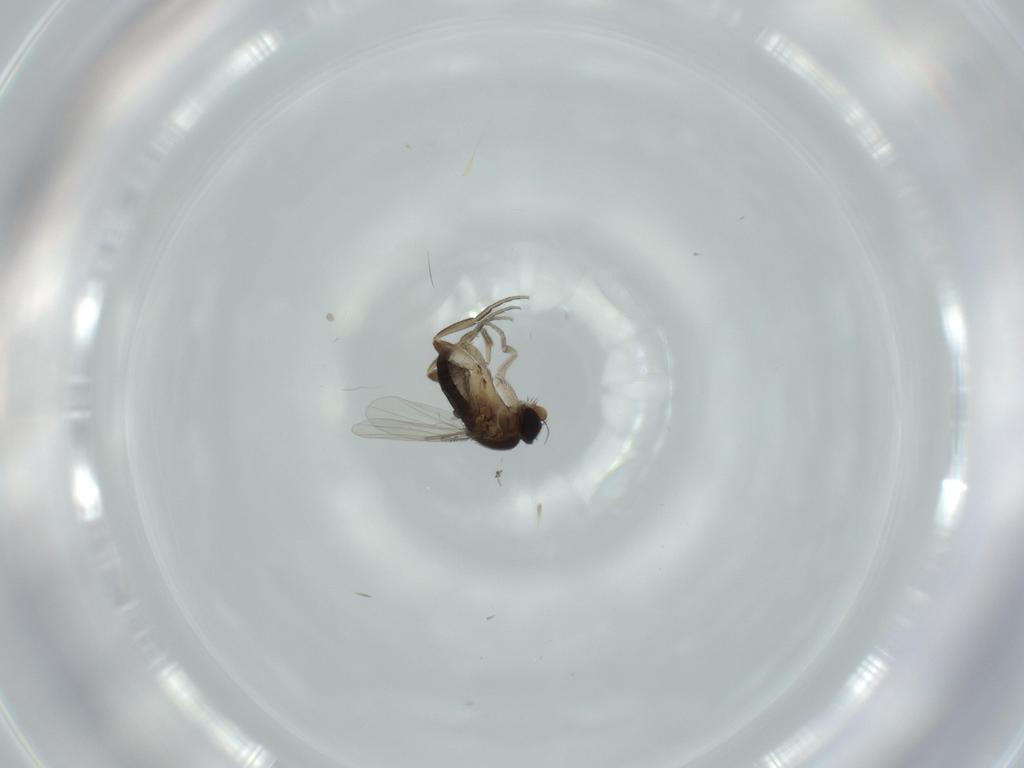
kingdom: Animalia
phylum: Arthropoda
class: Insecta
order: Diptera
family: Phoridae
